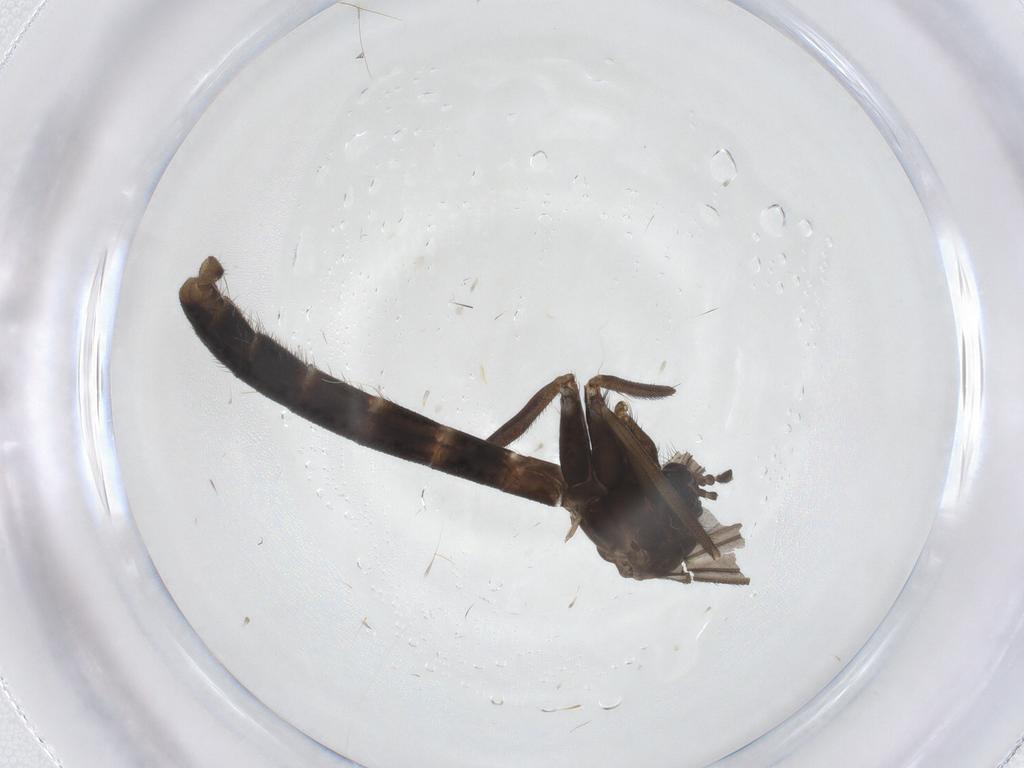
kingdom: Animalia
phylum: Arthropoda
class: Insecta
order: Diptera
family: Tachinidae
